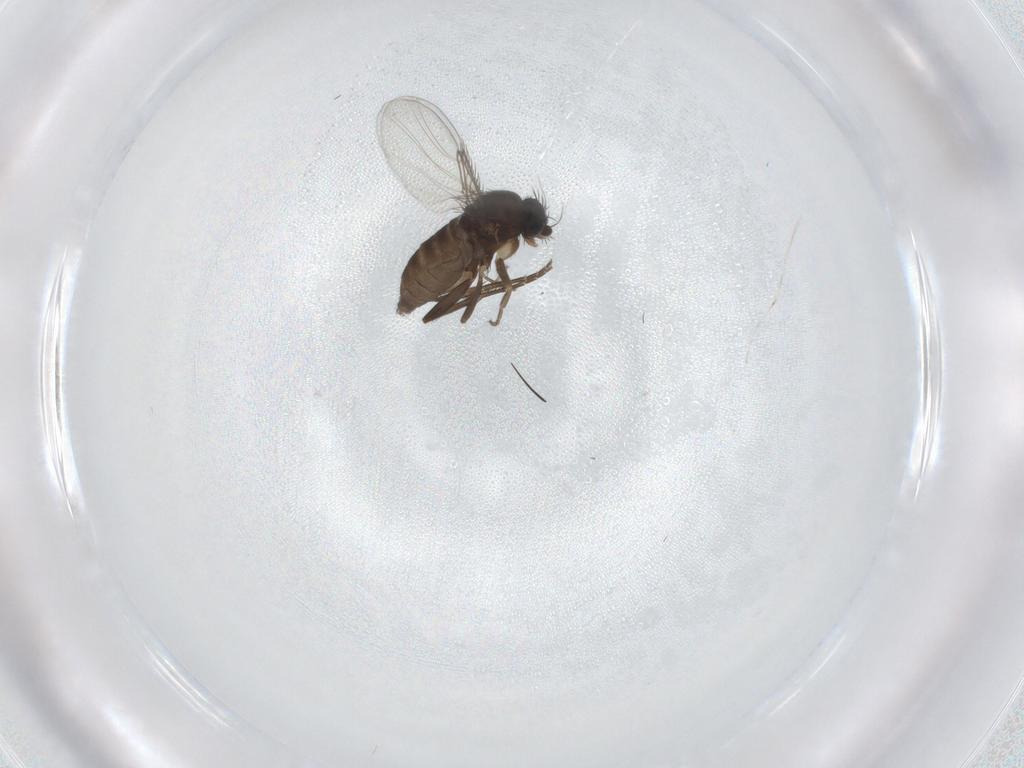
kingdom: Animalia
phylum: Arthropoda
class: Insecta
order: Diptera
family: Phoridae
